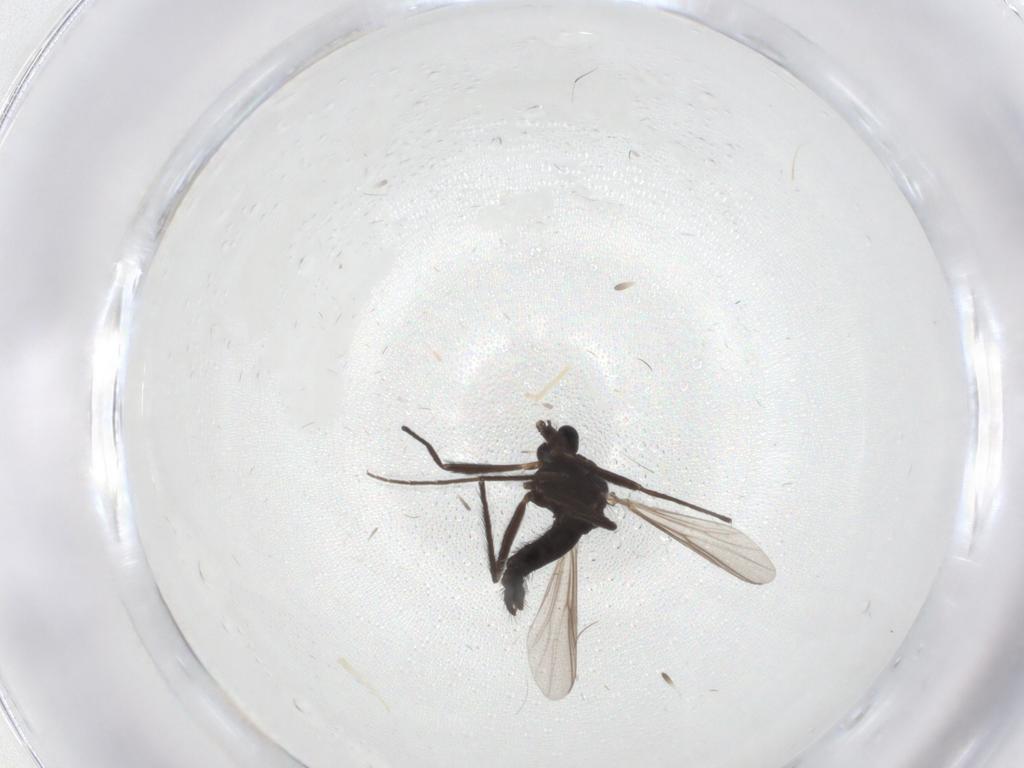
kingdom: Animalia
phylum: Arthropoda
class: Insecta
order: Diptera
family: Chironomidae
